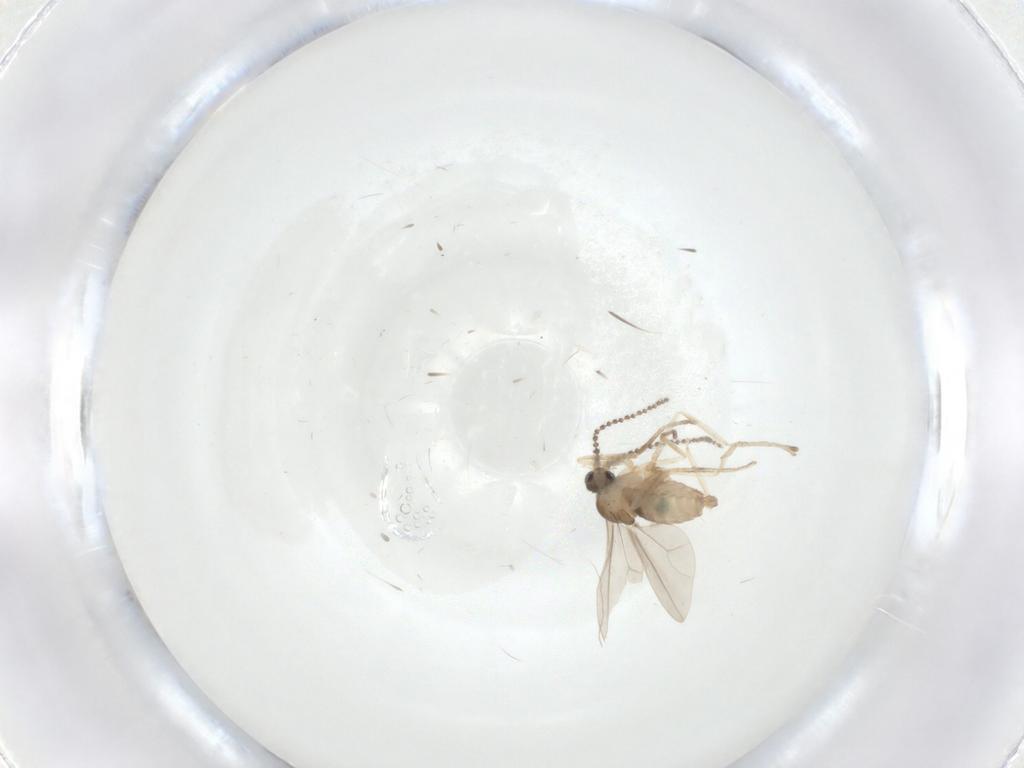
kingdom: Animalia
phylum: Arthropoda
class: Insecta
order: Diptera
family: Cecidomyiidae
